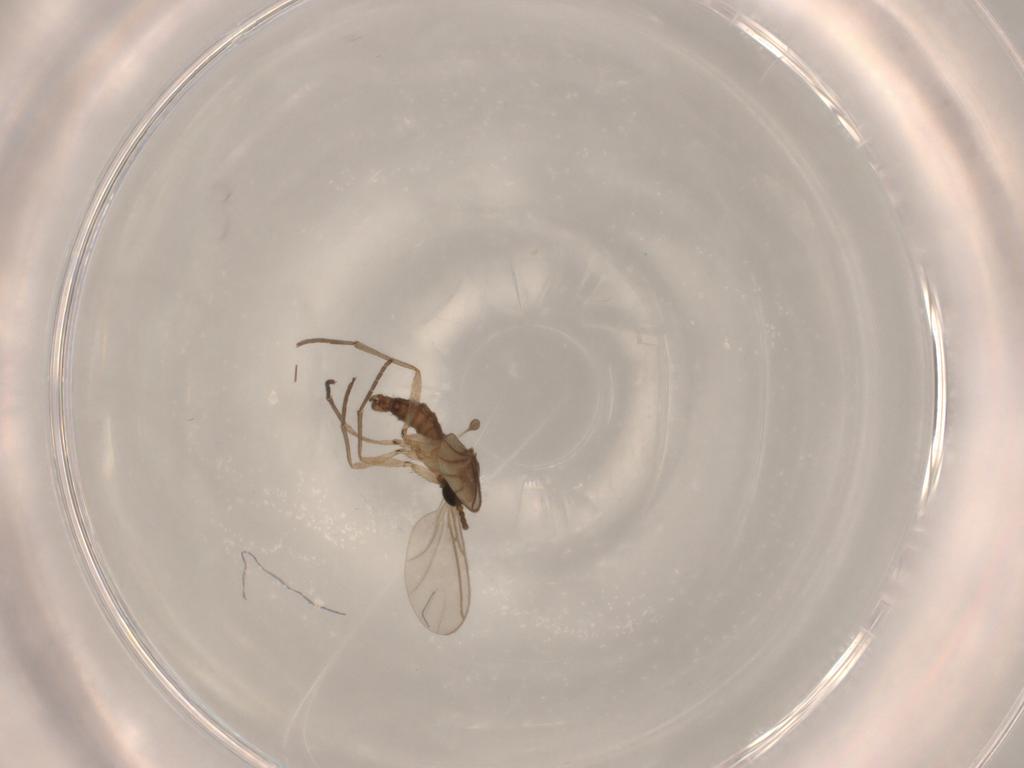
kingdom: Animalia
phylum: Arthropoda
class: Insecta
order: Diptera
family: Sciaridae
